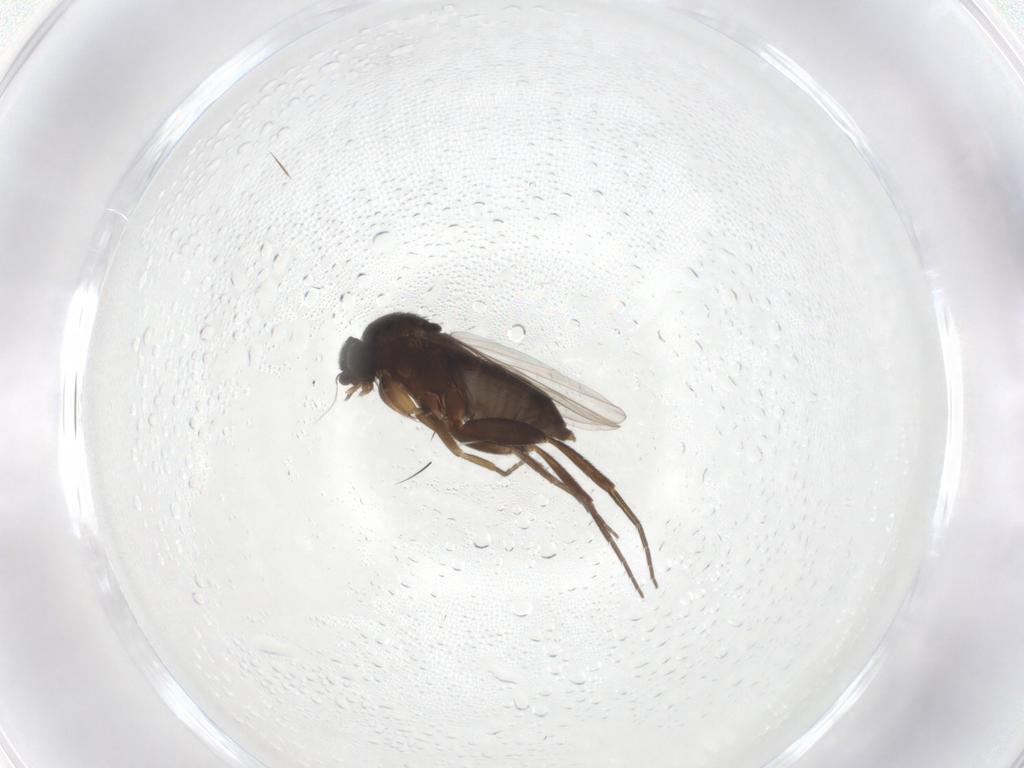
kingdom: Animalia
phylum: Arthropoda
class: Insecta
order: Diptera
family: Phoridae
